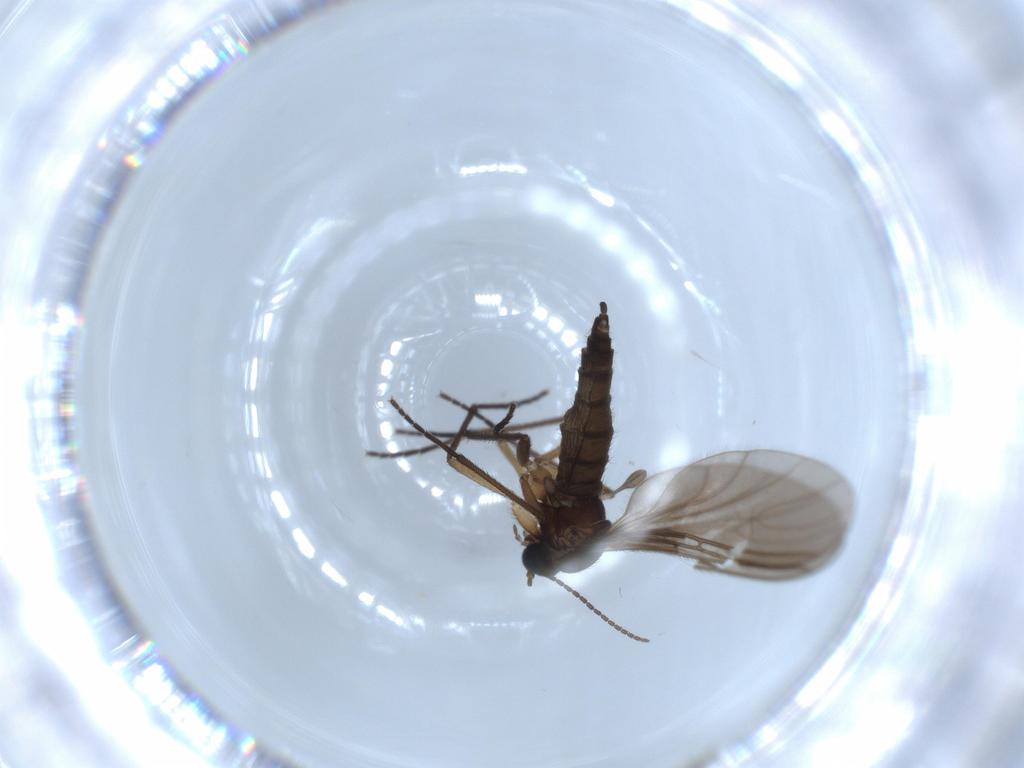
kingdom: Animalia
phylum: Arthropoda
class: Insecta
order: Diptera
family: Sciaridae
